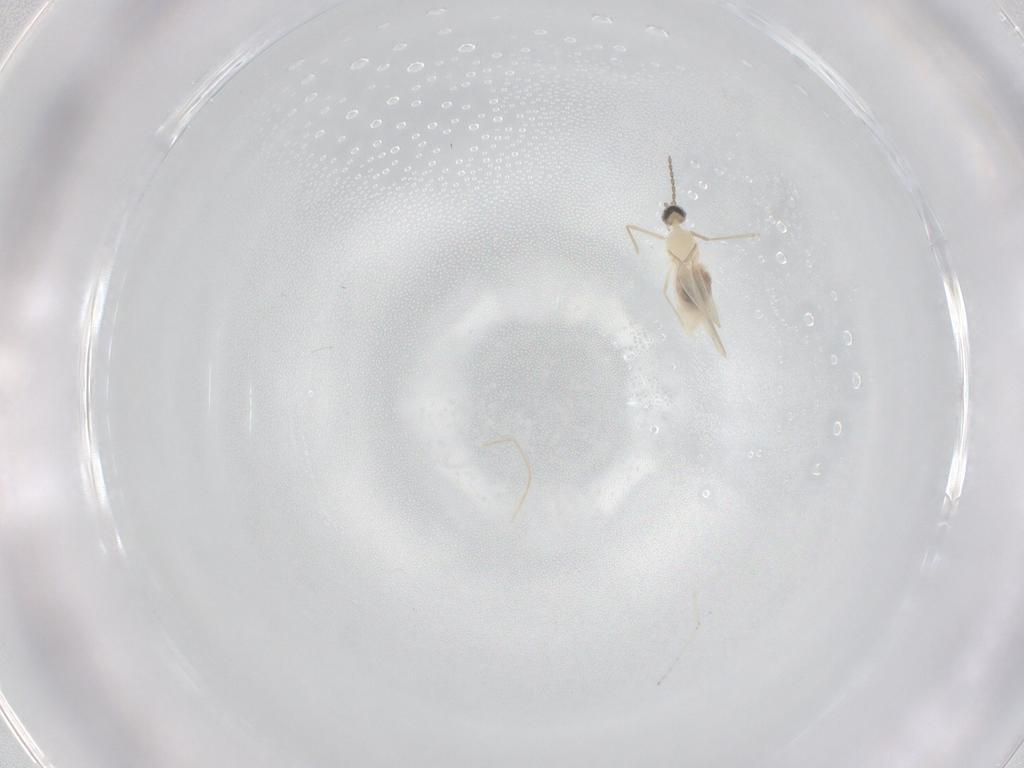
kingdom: Animalia
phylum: Arthropoda
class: Insecta
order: Diptera
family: Cecidomyiidae
